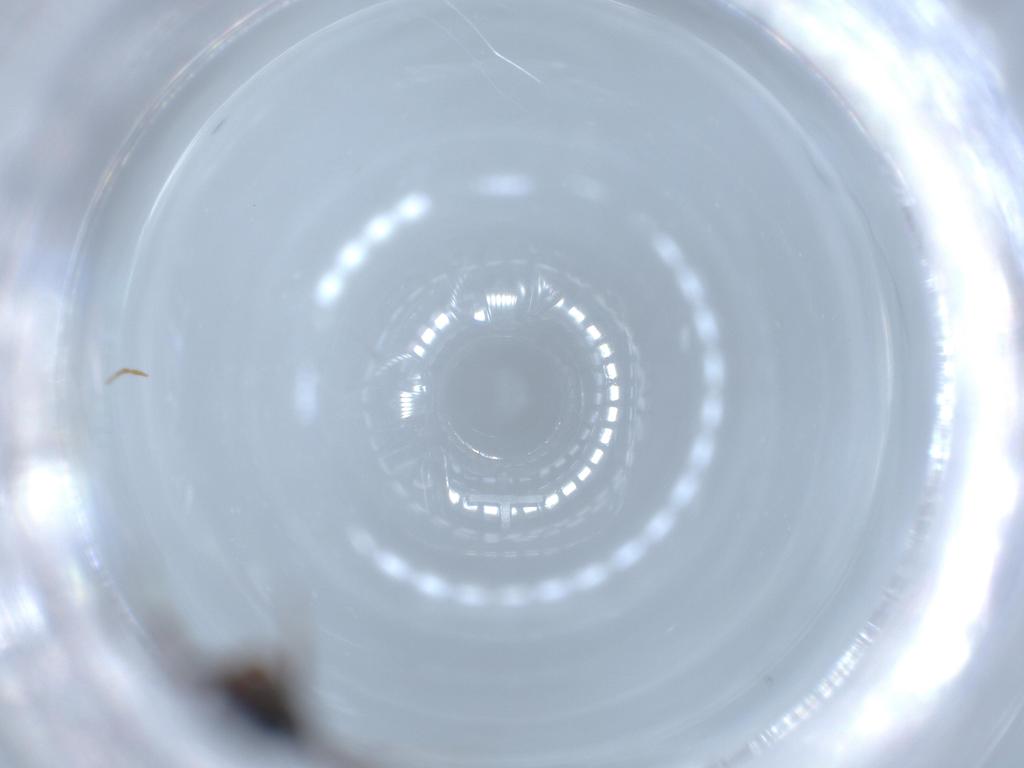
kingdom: Animalia
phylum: Arthropoda
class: Insecta
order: Hymenoptera
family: Formicidae
